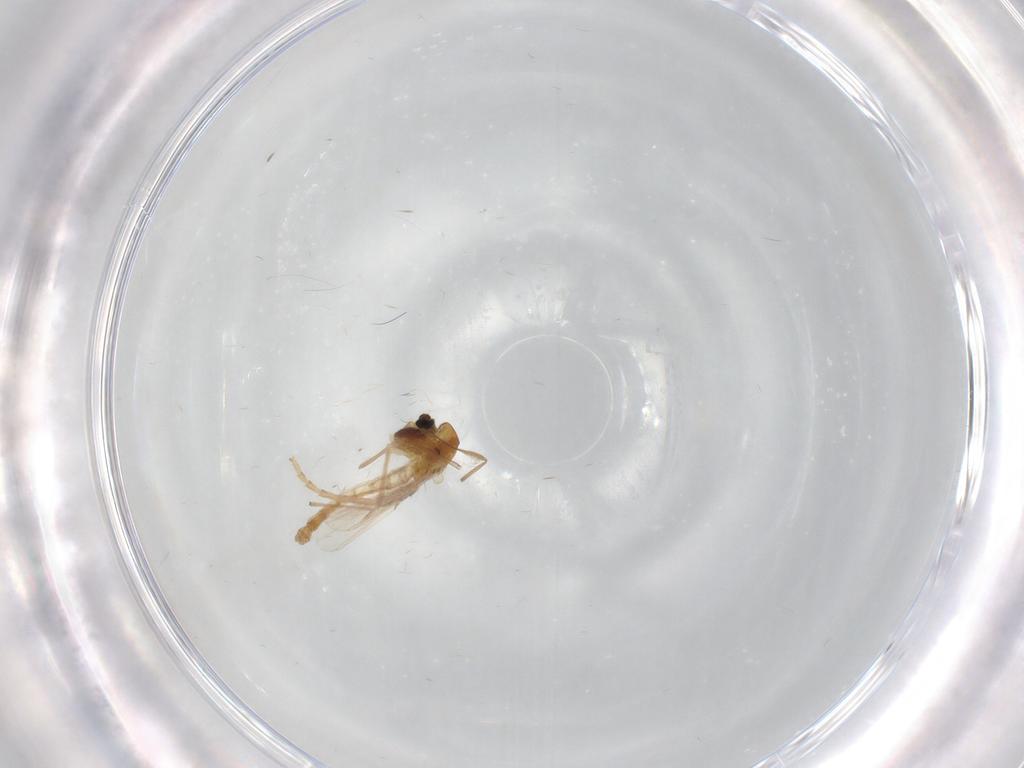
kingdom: Animalia
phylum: Arthropoda
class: Insecta
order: Diptera
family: Chironomidae
